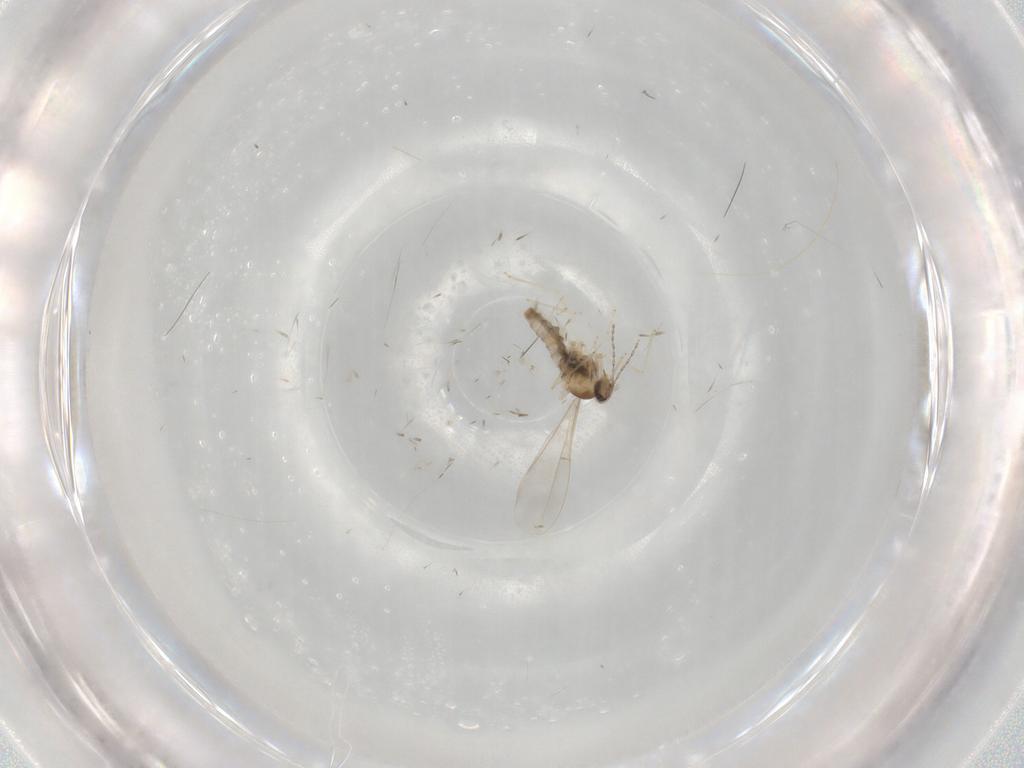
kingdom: Animalia
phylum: Arthropoda
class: Insecta
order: Diptera
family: Cecidomyiidae
